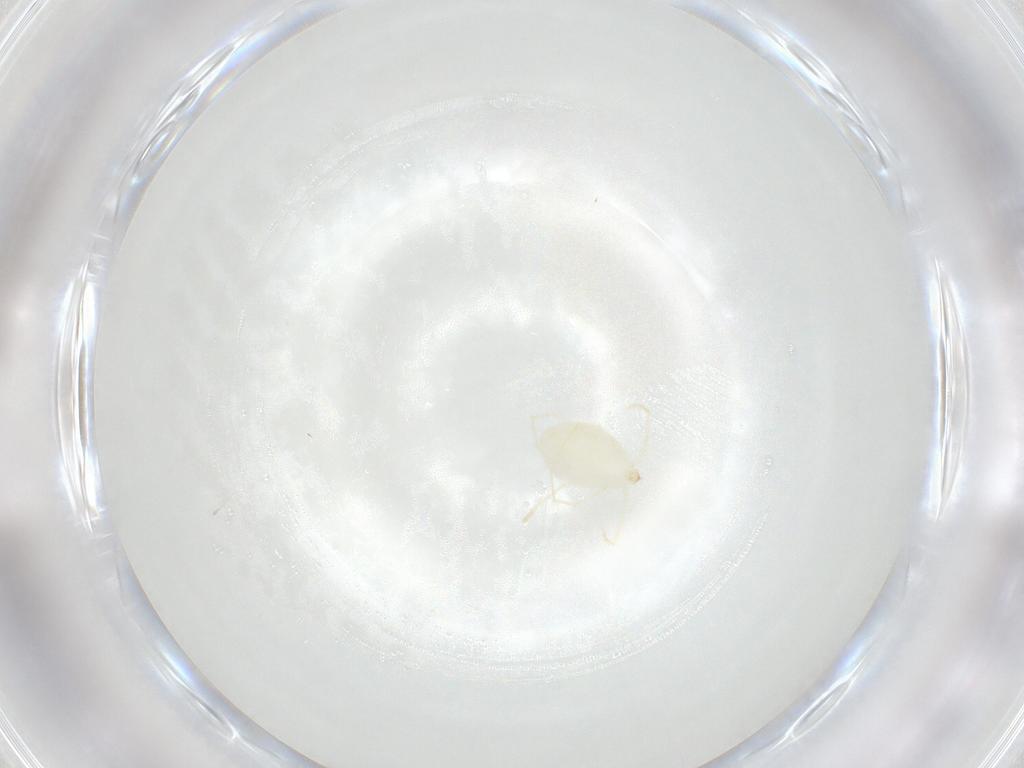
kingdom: Animalia
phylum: Arthropoda
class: Arachnida
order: Trombidiformes
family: Erythraeidae
